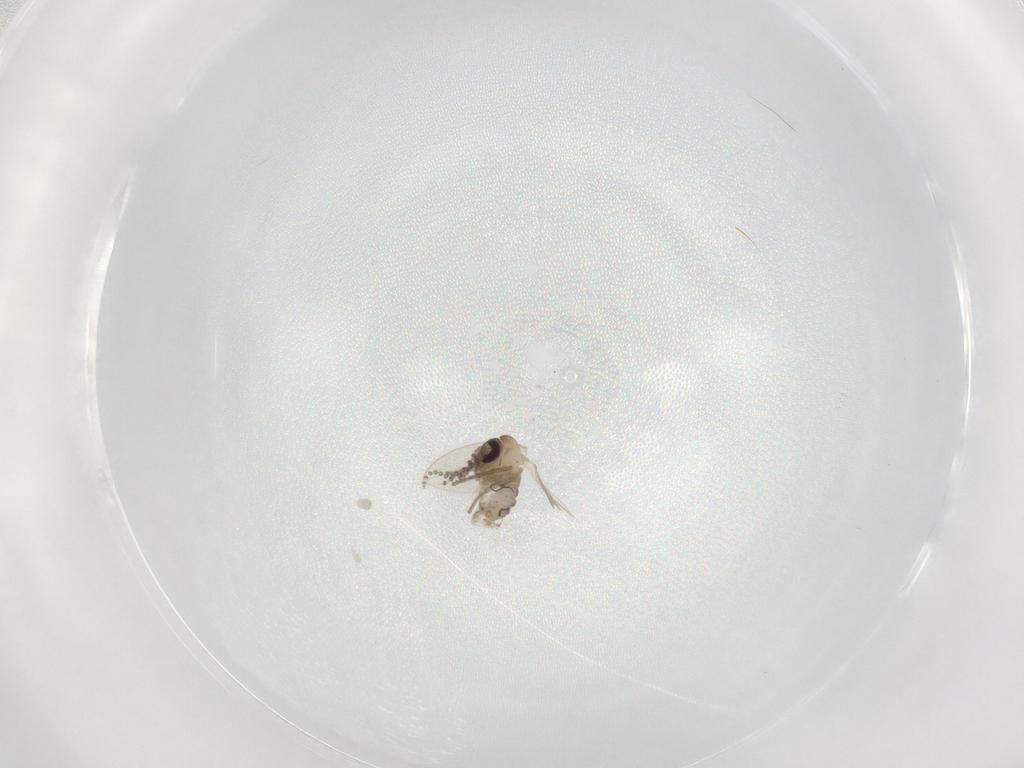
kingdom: Animalia
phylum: Arthropoda
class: Insecta
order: Diptera
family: Psychodidae
